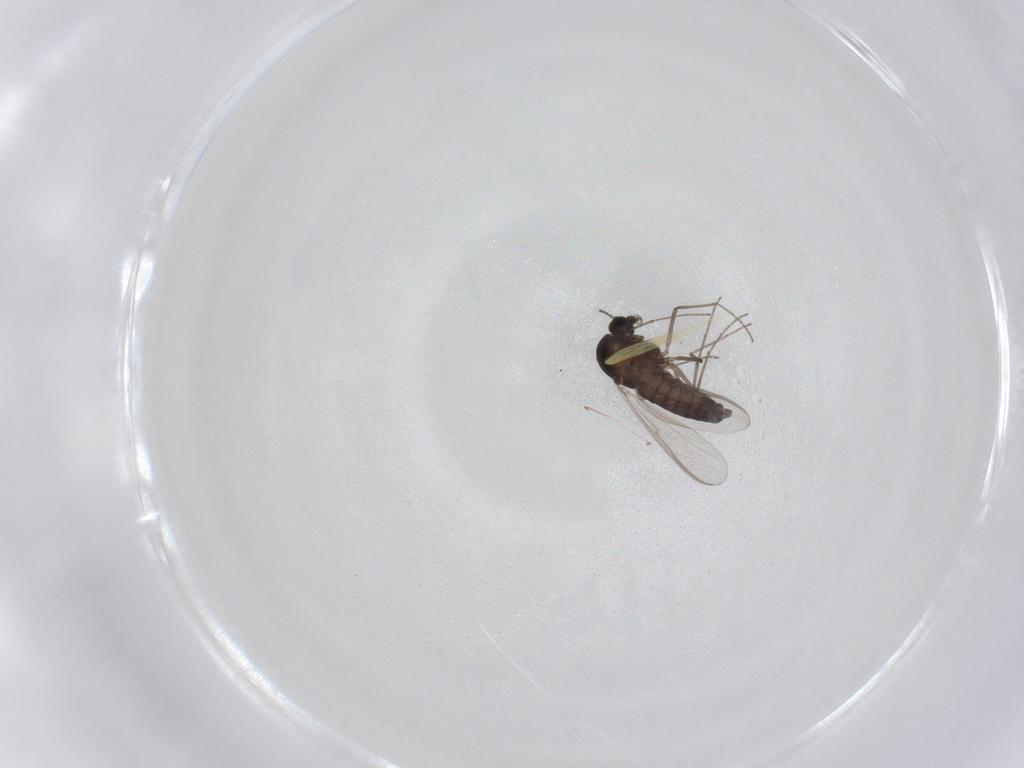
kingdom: Animalia
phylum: Arthropoda
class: Insecta
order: Diptera
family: Chironomidae
